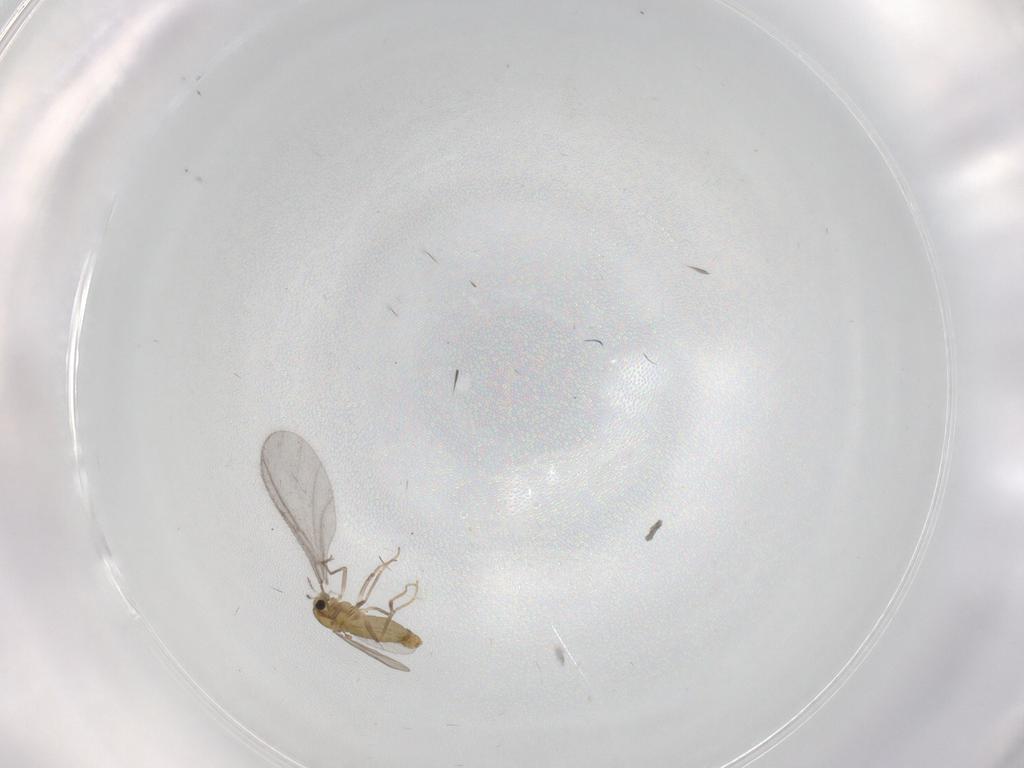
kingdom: Animalia
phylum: Arthropoda
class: Insecta
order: Diptera
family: Chironomidae
